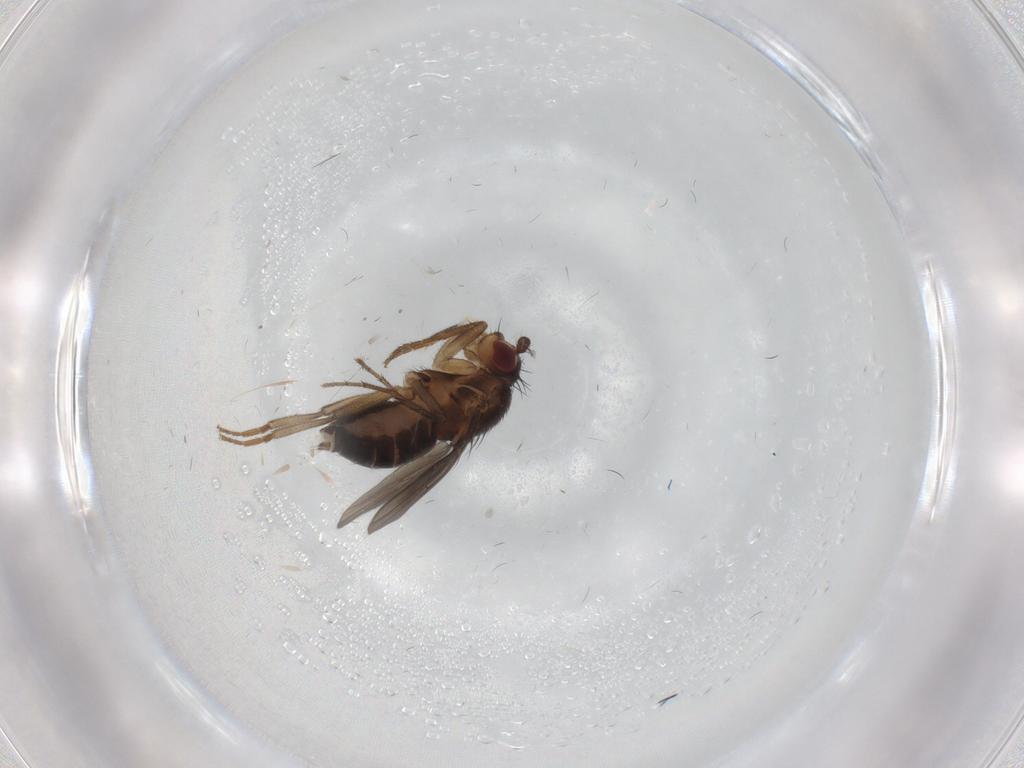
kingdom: Animalia
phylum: Arthropoda
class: Insecta
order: Diptera
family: Sphaeroceridae
